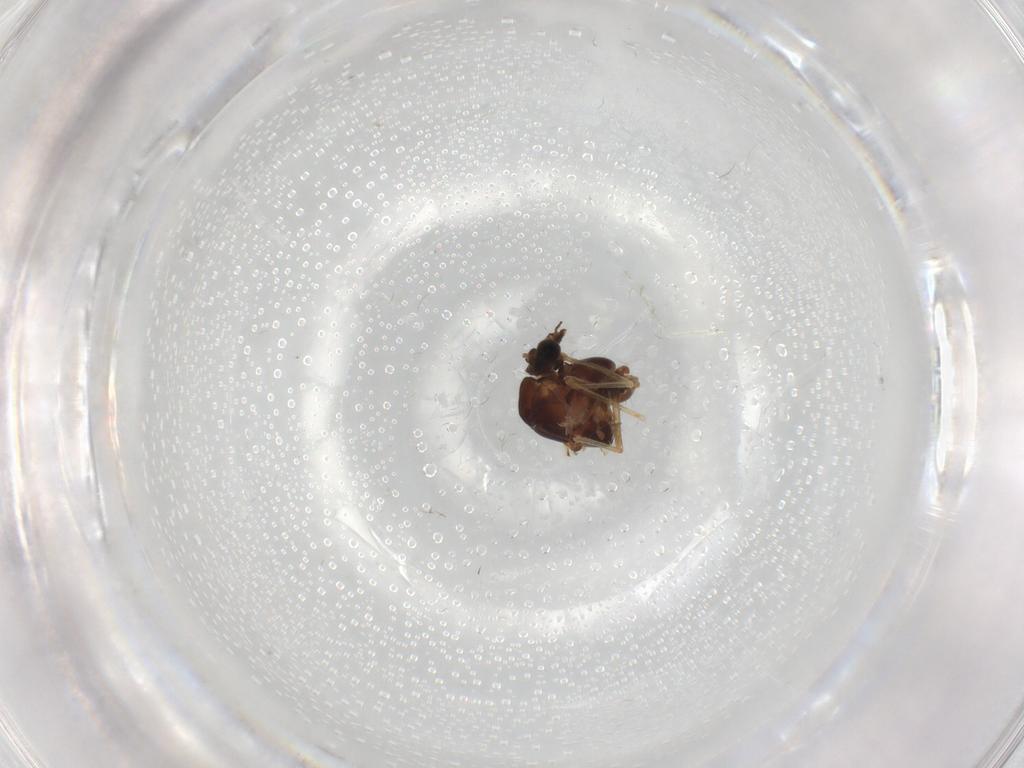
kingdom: Animalia
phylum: Arthropoda
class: Insecta
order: Diptera
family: Chironomidae
